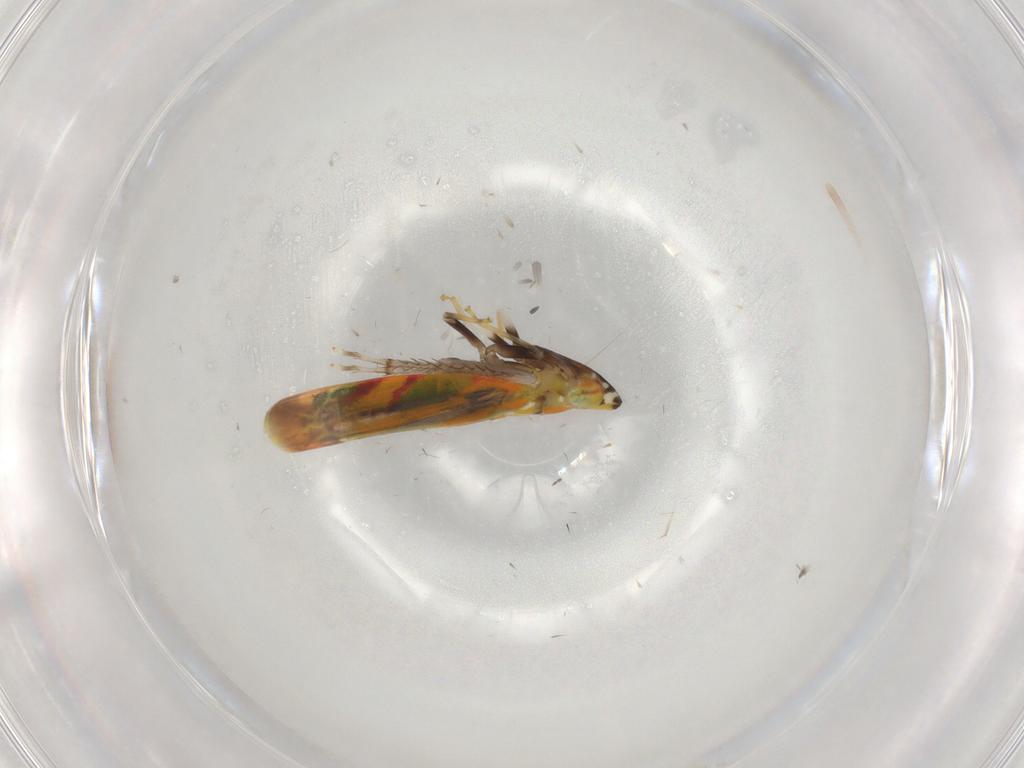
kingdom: Animalia
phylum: Arthropoda
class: Insecta
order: Hemiptera
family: Cicadellidae
